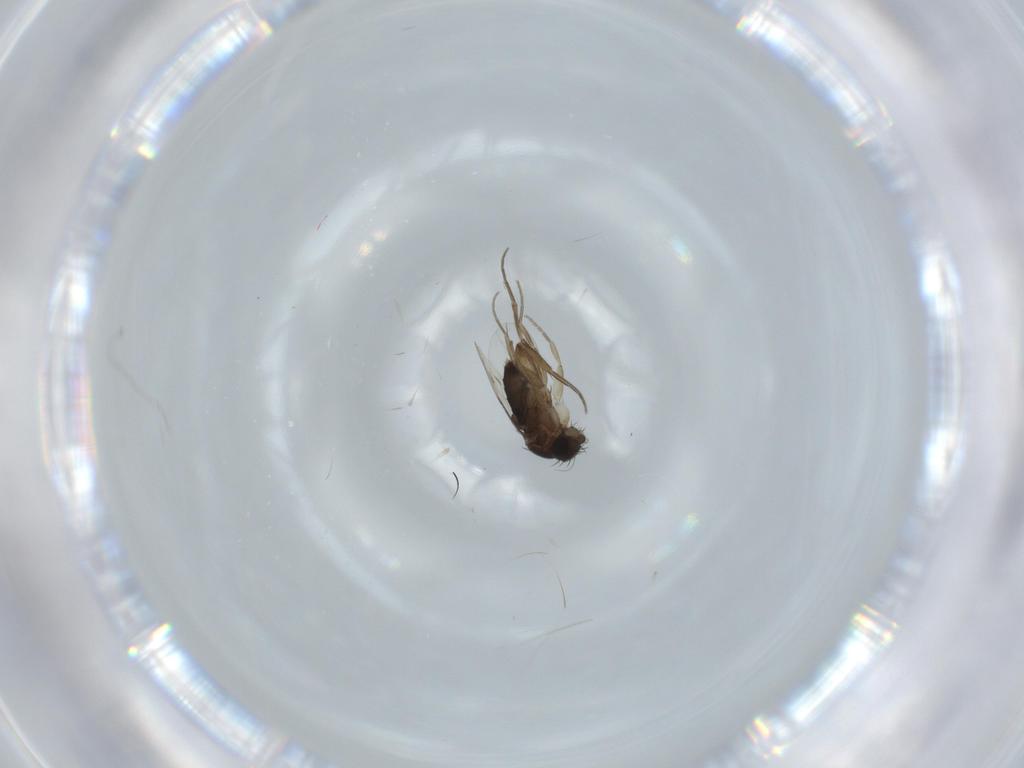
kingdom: Animalia
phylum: Arthropoda
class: Insecta
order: Diptera
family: Phoridae
